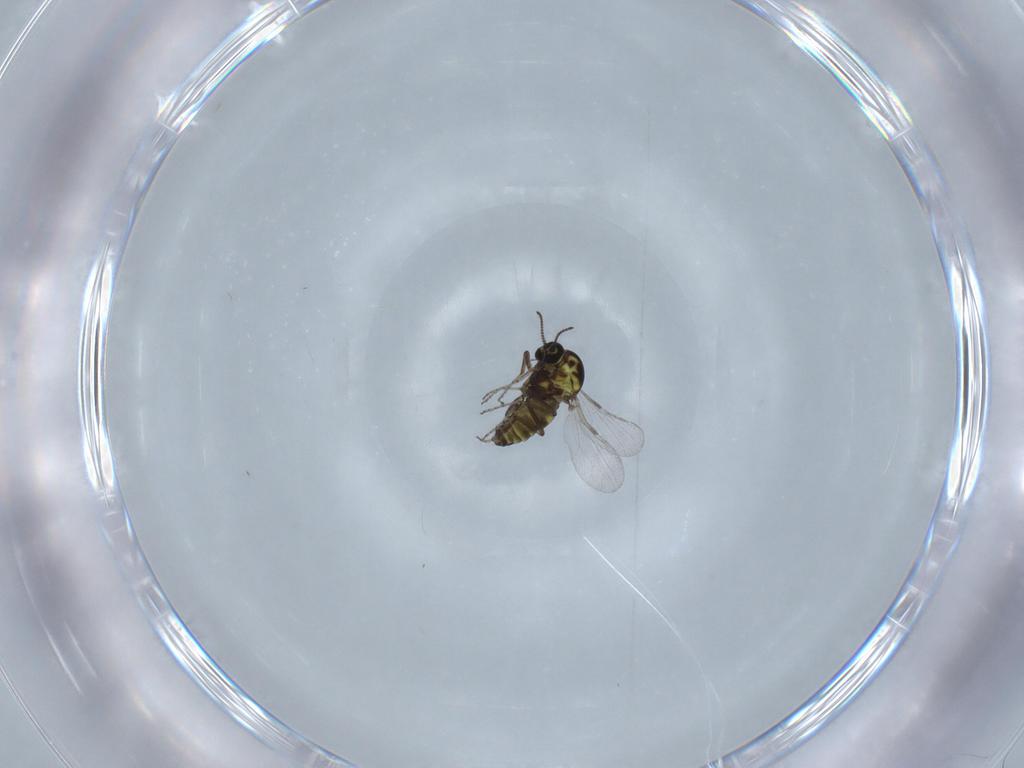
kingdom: Animalia
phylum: Arthropoda
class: Insecta
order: Diptera
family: Ceratopogonidae
